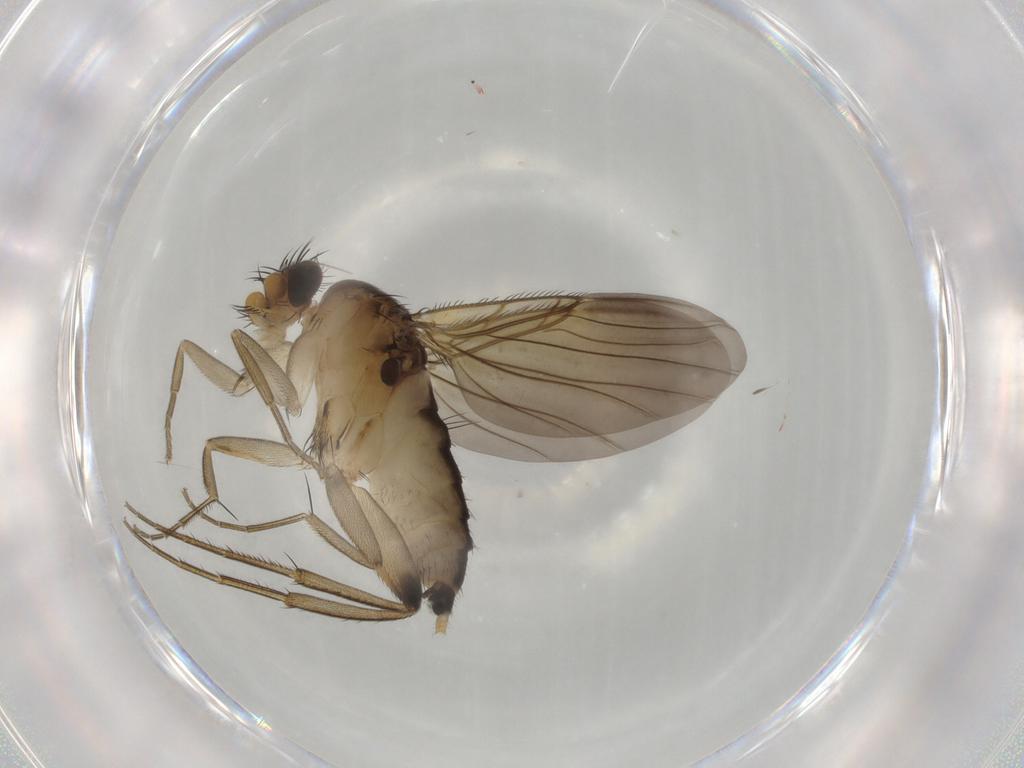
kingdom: Animalia
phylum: Arthropoda
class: Insecta
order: Diptera
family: Phoridae
